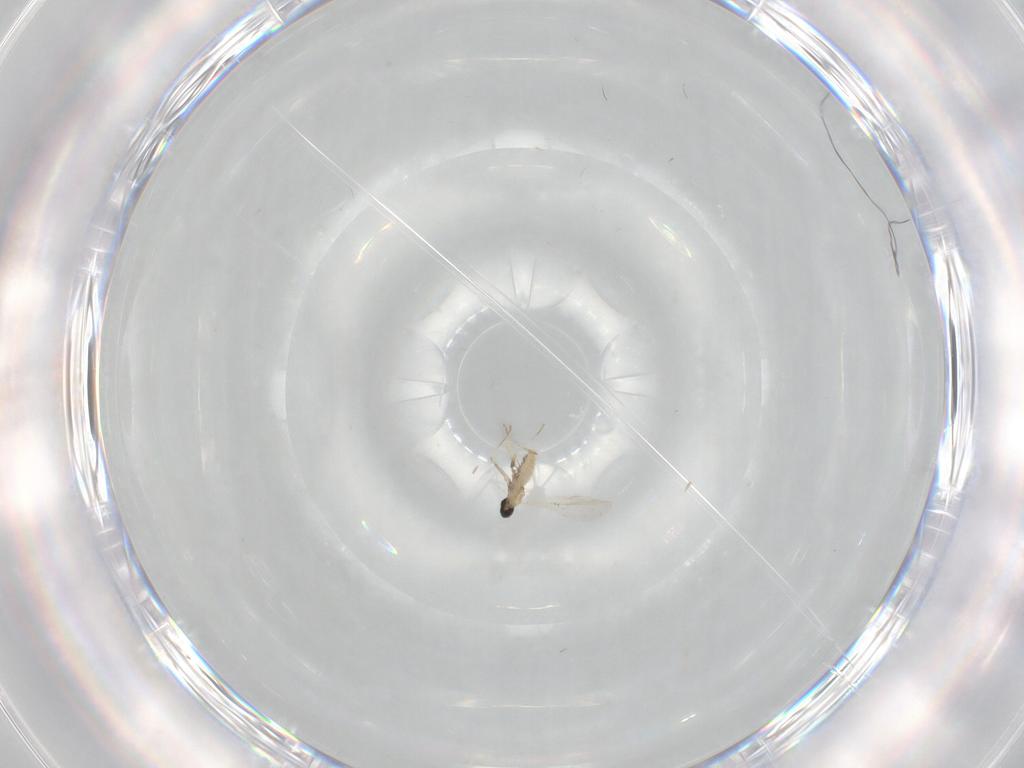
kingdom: Animalia
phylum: Arthropoda
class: Insecta
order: Diptera
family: Cecidomyiidae
